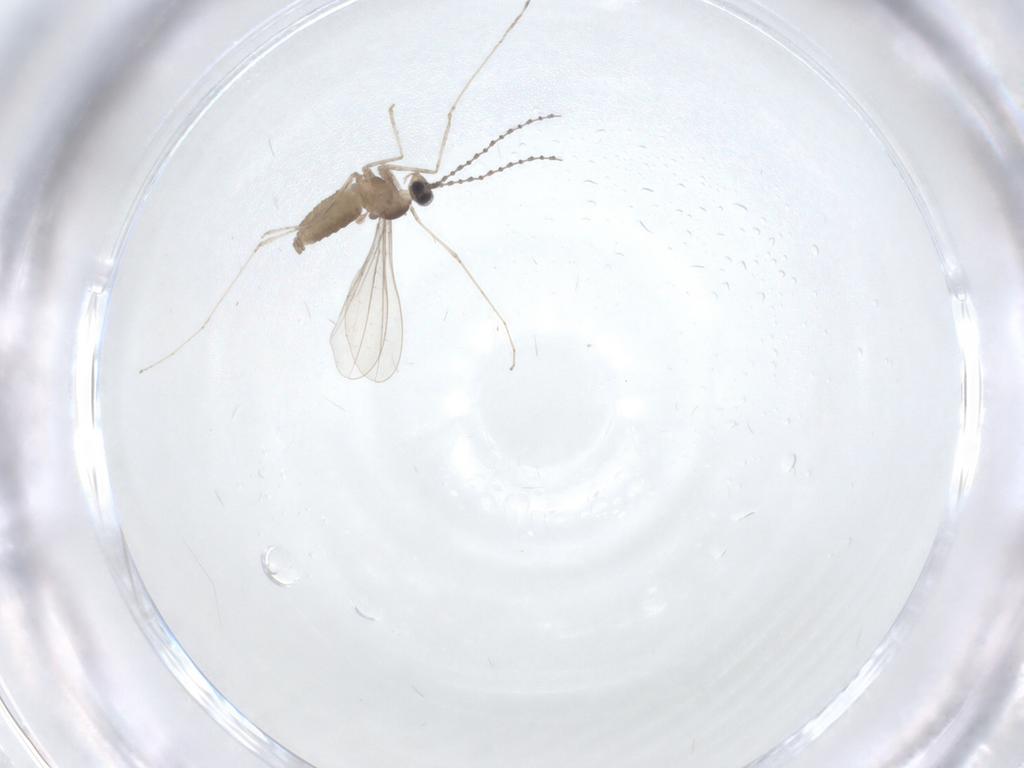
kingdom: Animalia
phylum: Arthropoda
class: Insecta
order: Diptera
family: Cecidomyiidae
